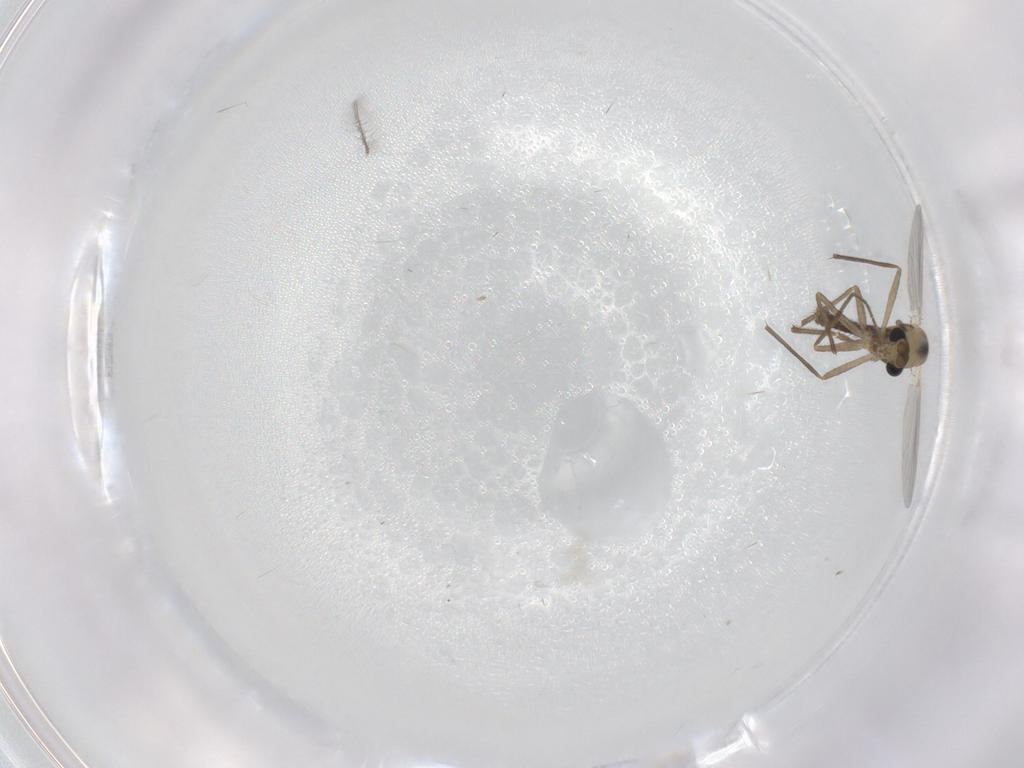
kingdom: Animalia
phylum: Arthropoda
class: Insecta
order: Diptera
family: Chironomidae
